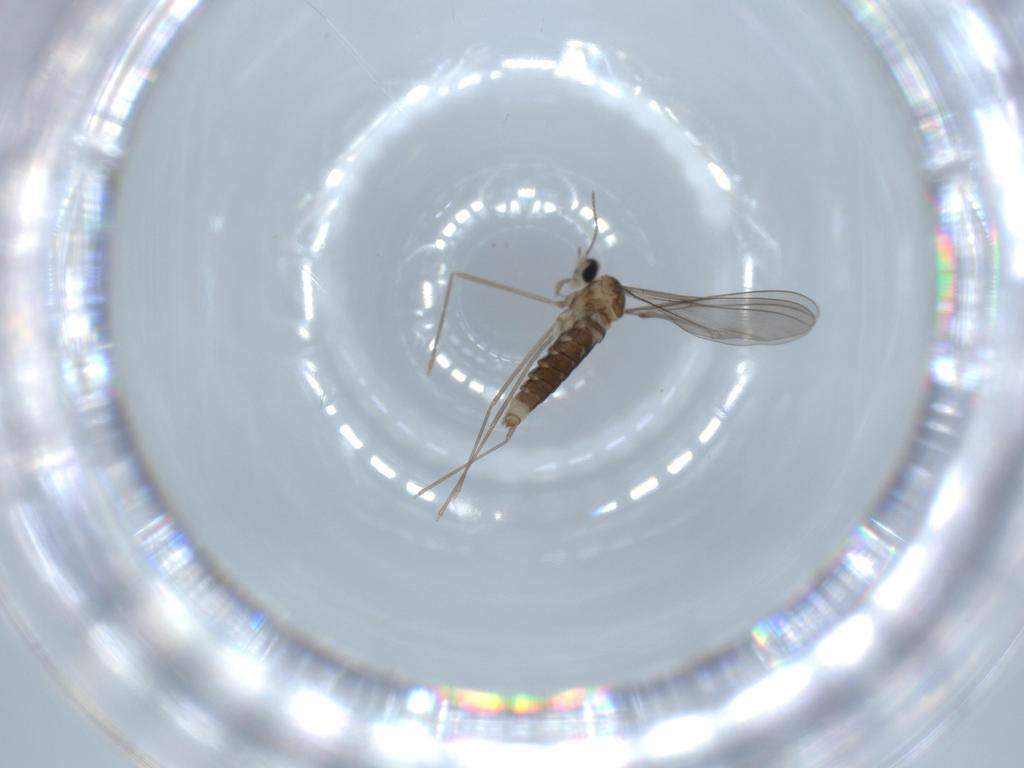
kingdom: Animalia
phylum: Arthropoda
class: Insecta
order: Diptera
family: Cecidomyiidae
